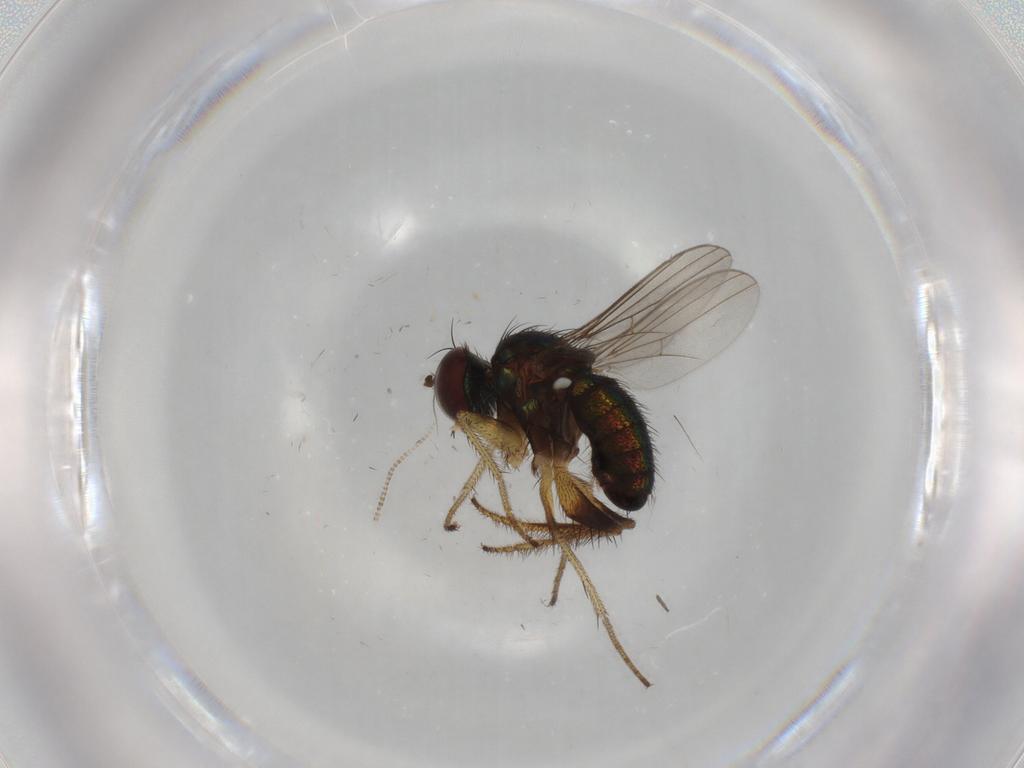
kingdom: Animalia
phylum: Arthropoda
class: Insecta
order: Diptera
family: Dolichopodidae
